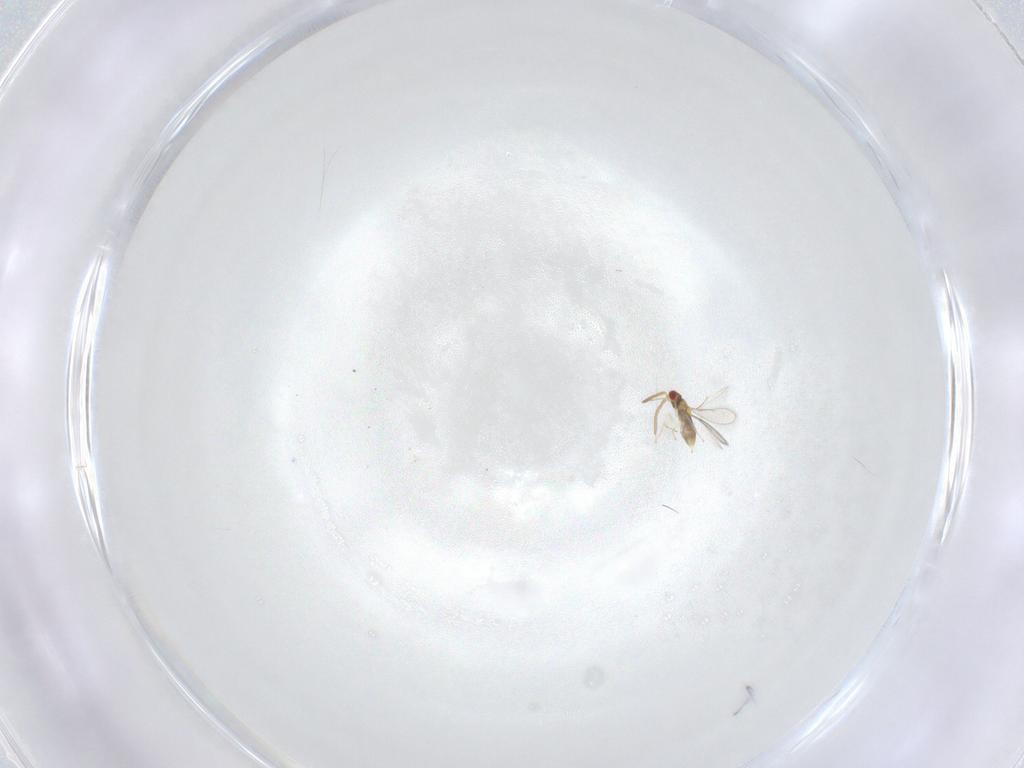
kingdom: Animalia
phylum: Arthropoda
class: Insecta
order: Hymenoptera
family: Aphelinidae
